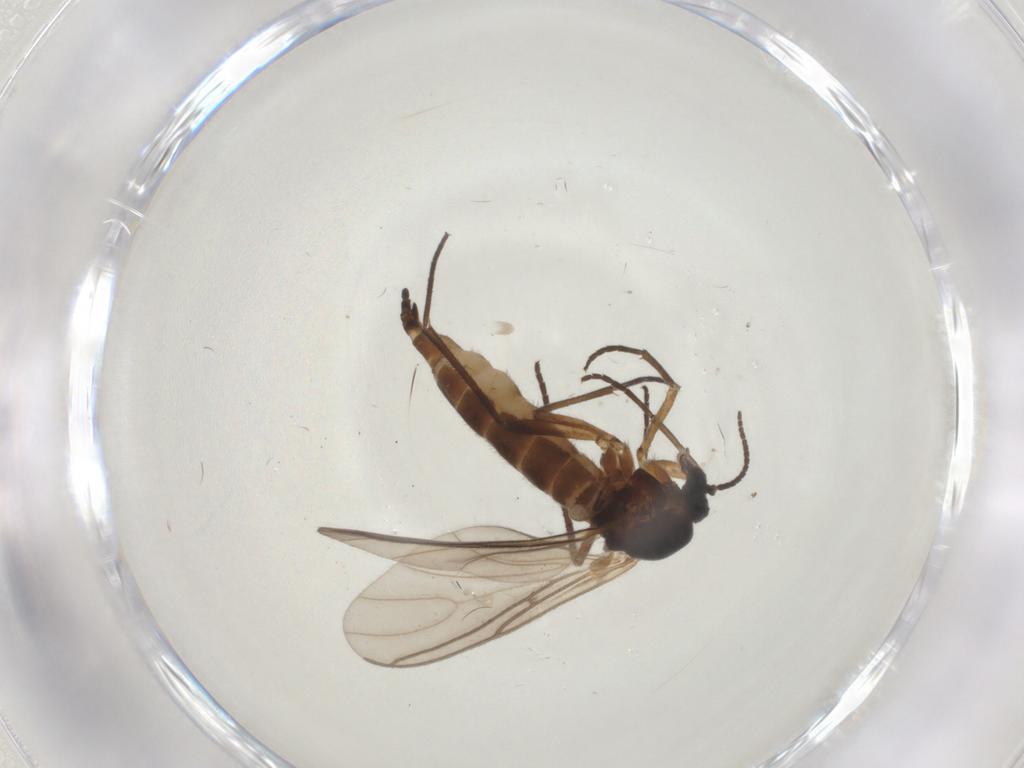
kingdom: Animalia
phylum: Arthropoda
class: Insecta
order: Diptera
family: Sciaridae
